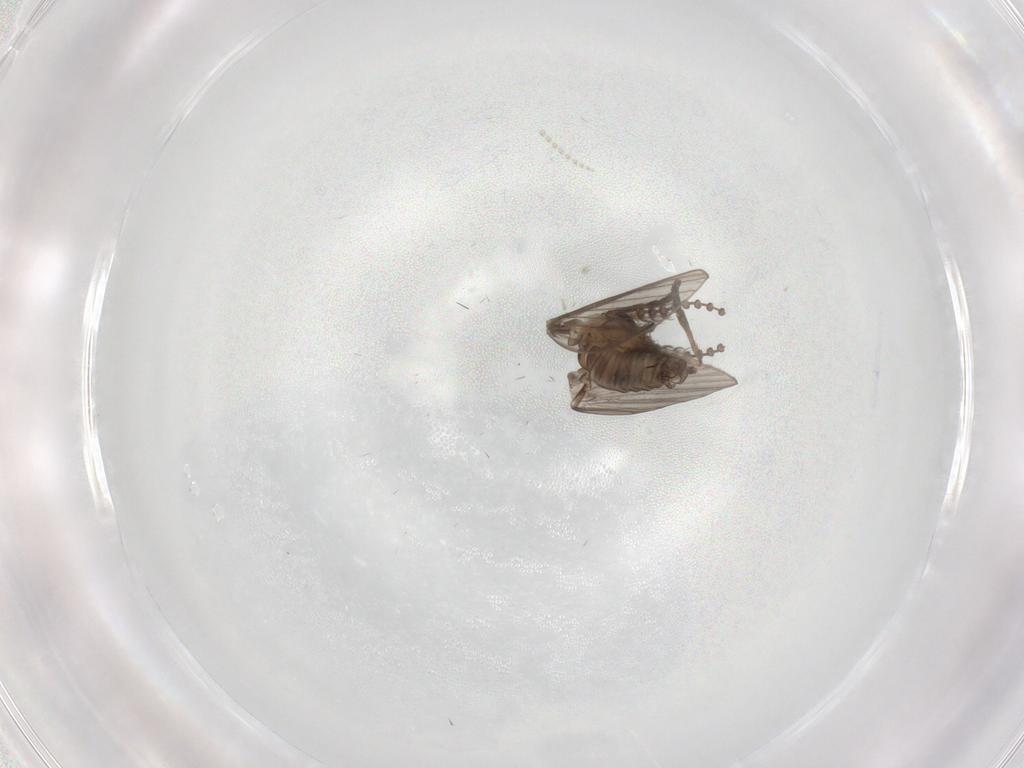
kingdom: Animalia
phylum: Arthropoda
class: Insecta
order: Diptera
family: Psychodidae
